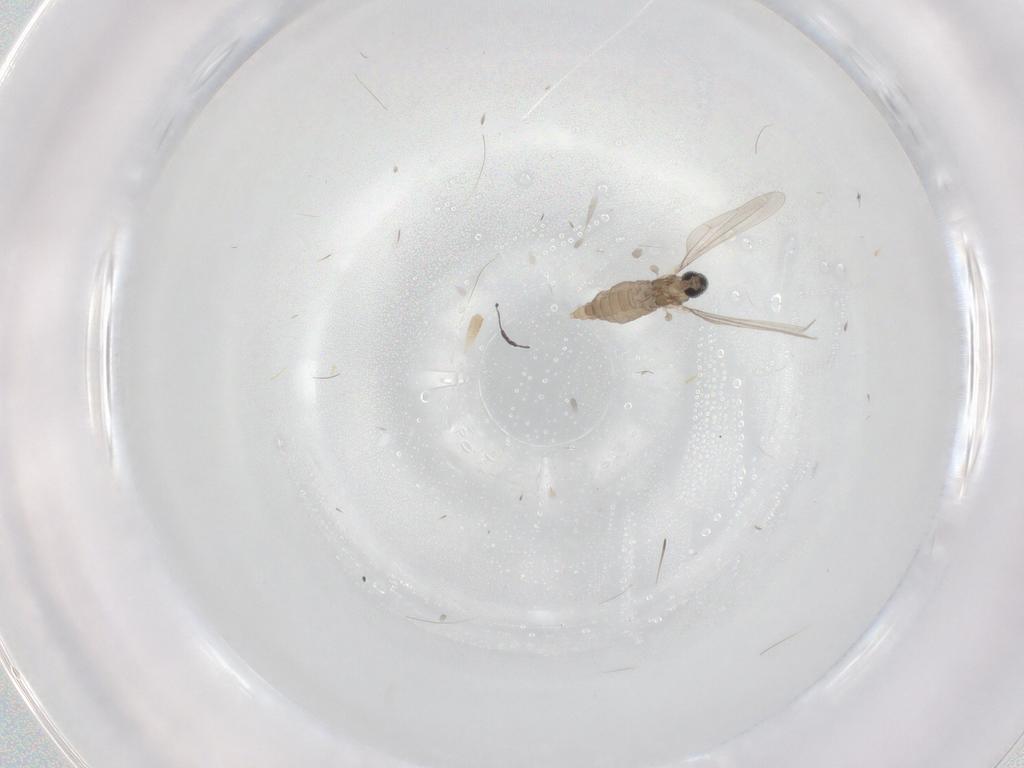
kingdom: Animalia
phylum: Arthropoda
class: Insecta
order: Diptera
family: Cecidomyiidae
